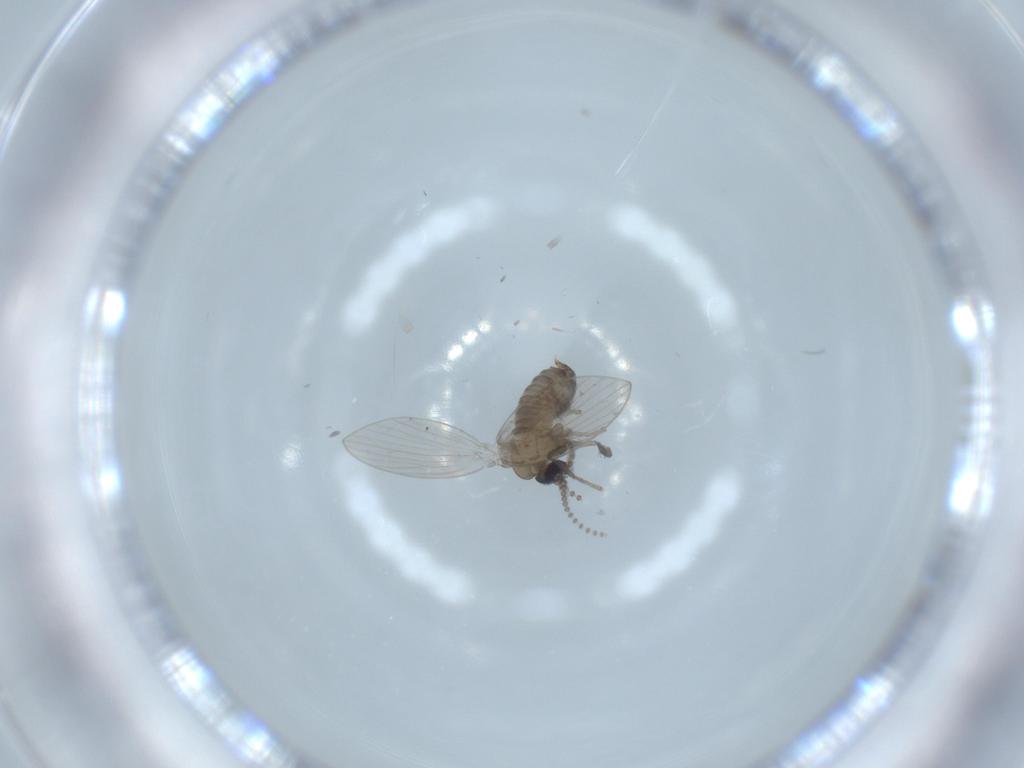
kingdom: Animalia
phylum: Arthropoda
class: Insecta
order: Diptera
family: Psychodidae
